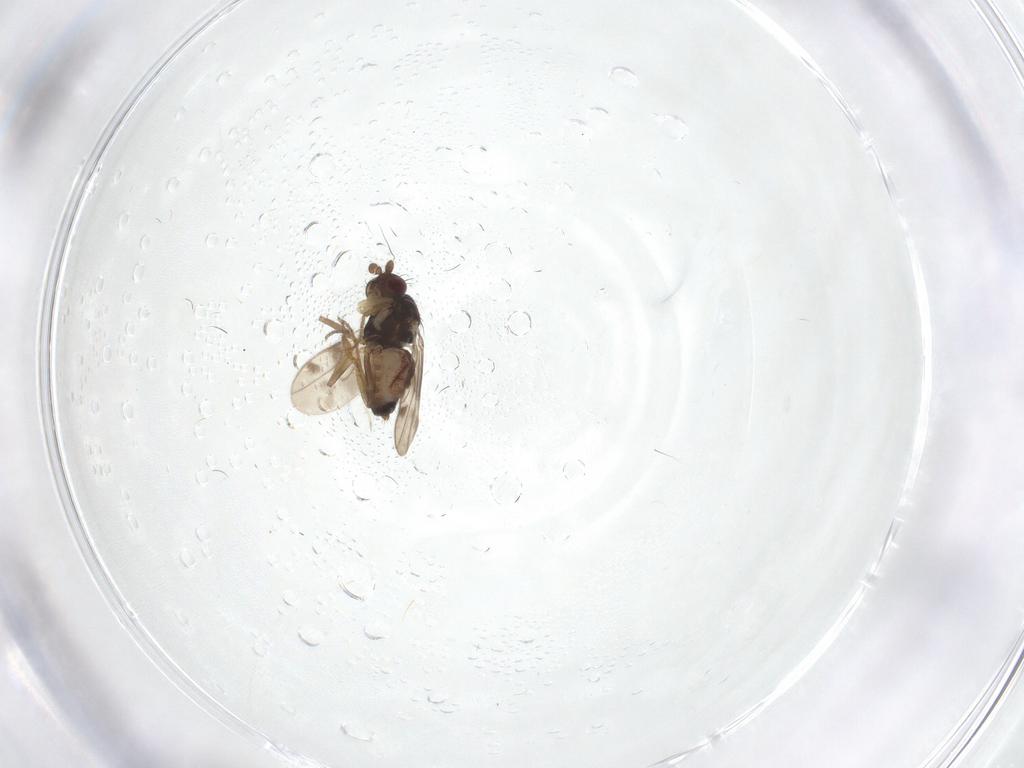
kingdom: Animalia
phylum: Arthropoda
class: Insecta
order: Diptera
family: Sphaeroceridae
